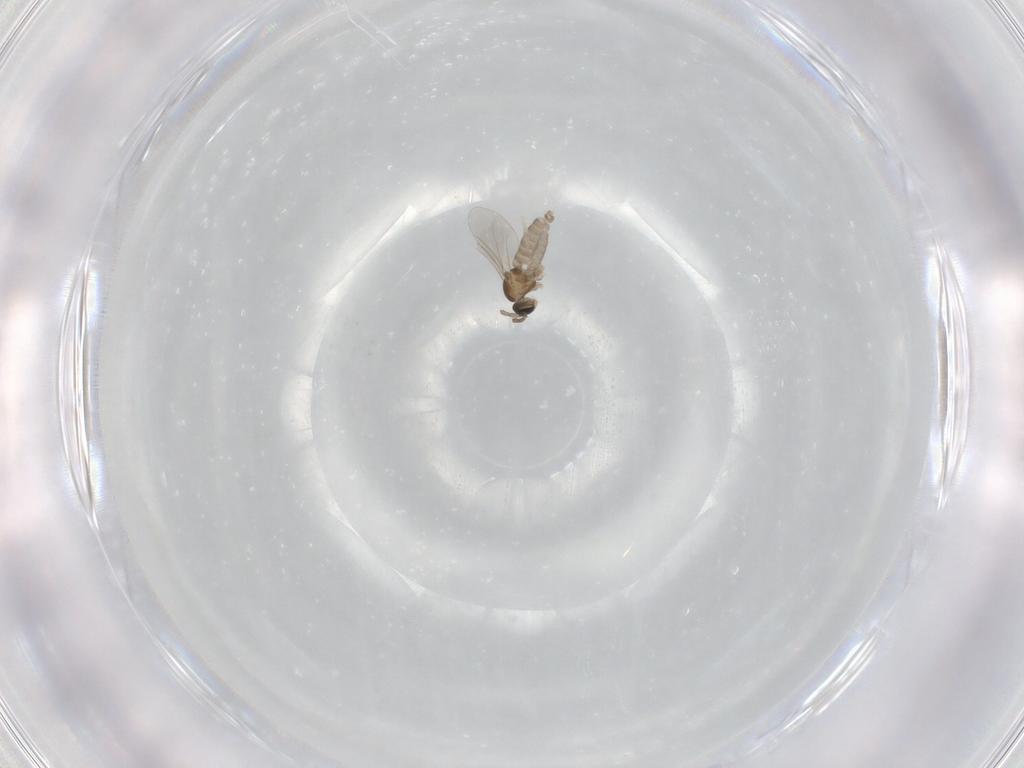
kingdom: Animalia
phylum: Arthropoda
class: Insecta
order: Diptera
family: Cecidomyiidae
